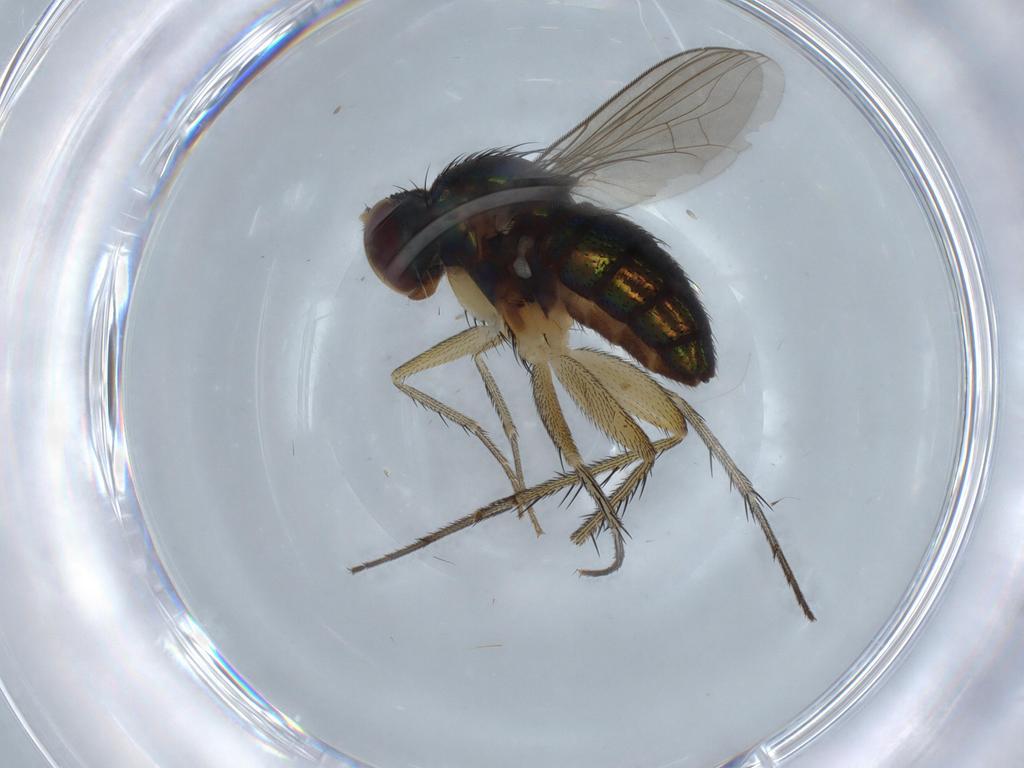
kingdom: Animalia
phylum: Arthropoda
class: Insecta
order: Diptera
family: Dolichopodidae
